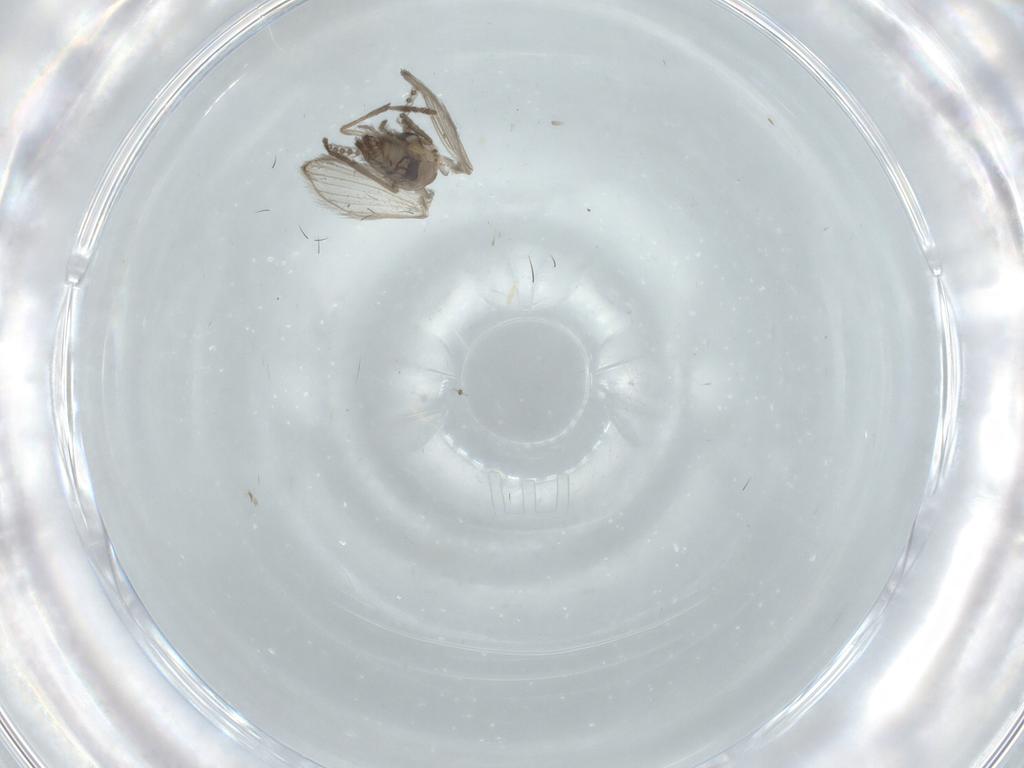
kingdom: Animalia
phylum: Arthropoda
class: Insecta
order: Diptera
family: Psychodidae
